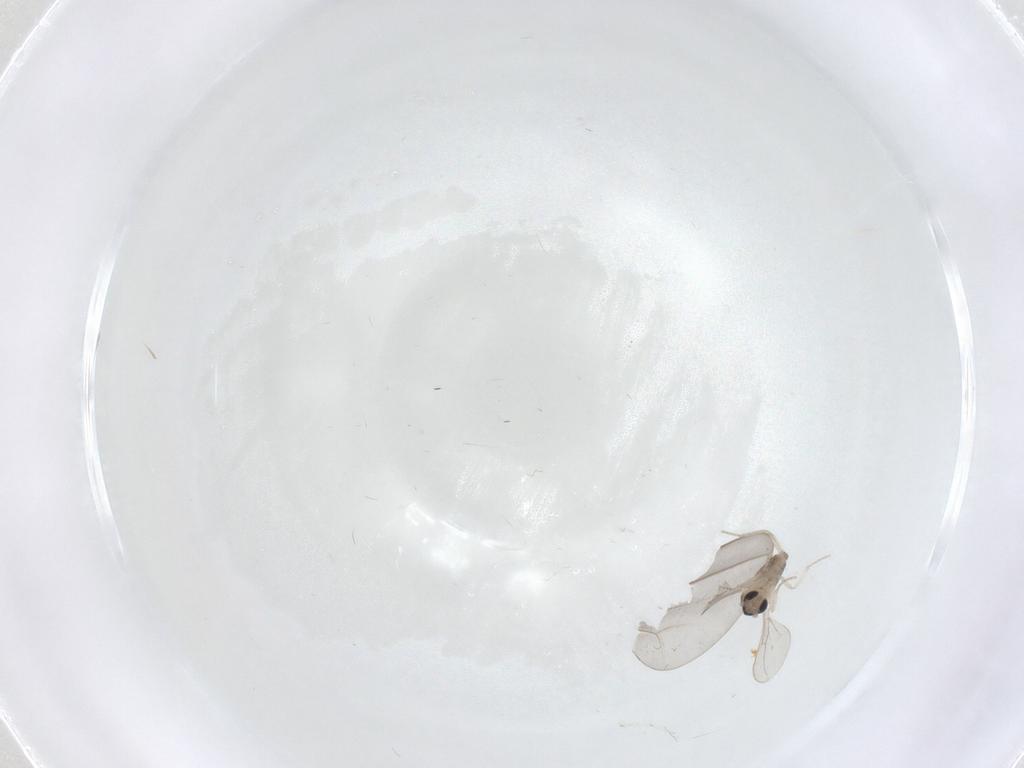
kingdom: Animalia
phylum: Arthropoda
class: Insecta
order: Diptera
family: Cecidomyiidae
